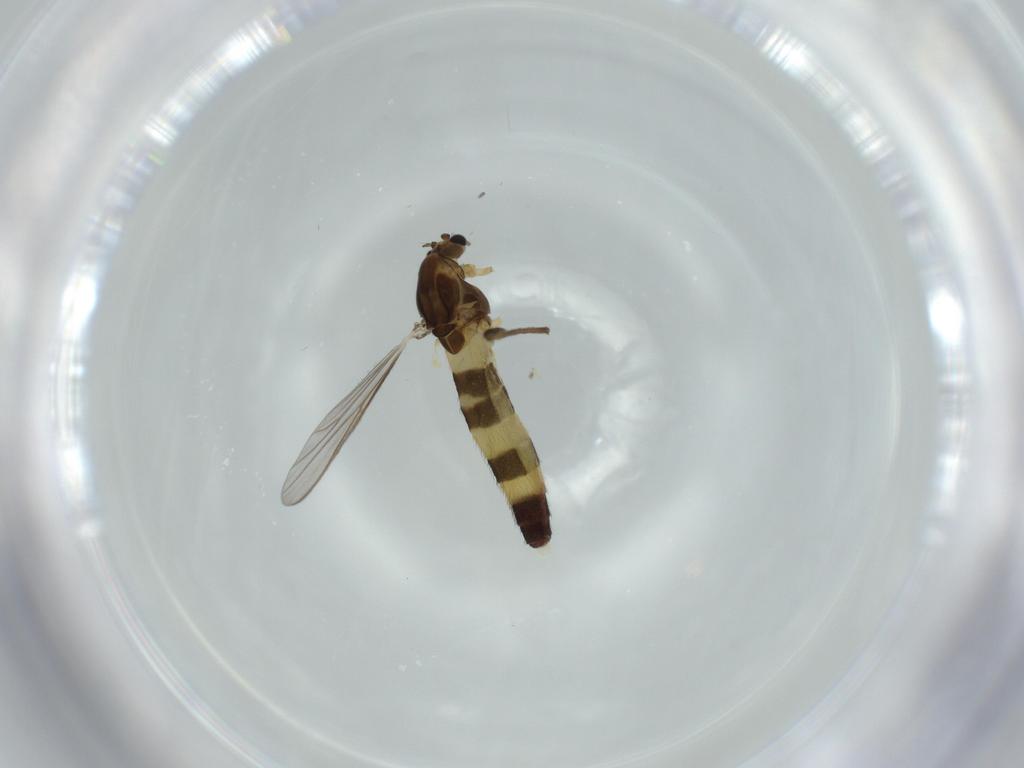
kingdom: Animalia
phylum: Arthropoda
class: Insecta
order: Diptera
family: Chironomidae
